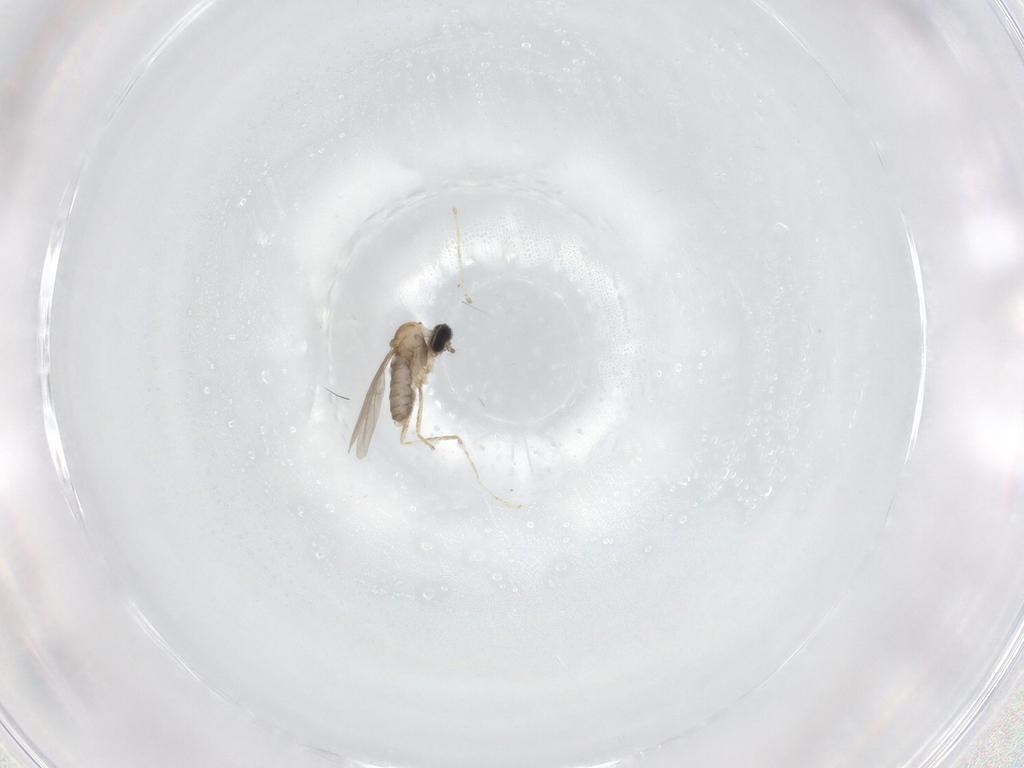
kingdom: Animalia
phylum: Arthropoda
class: Insecta
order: Diptera
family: Cecidomyiidae
